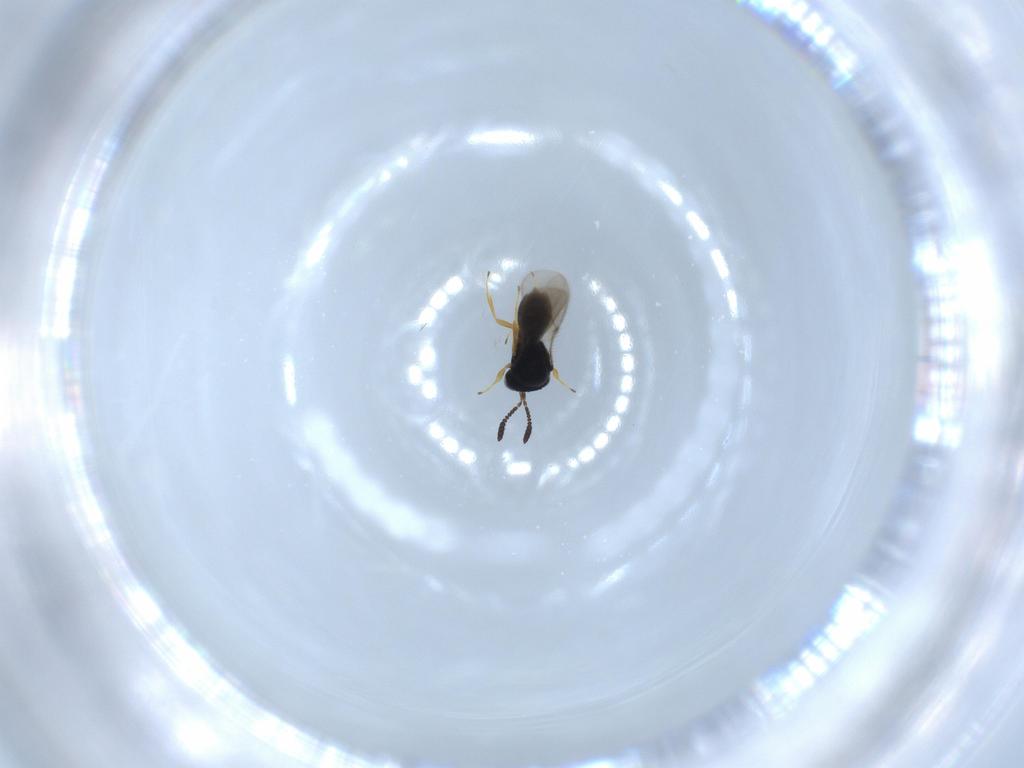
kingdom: Animalia
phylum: Arthropoda
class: Insecta
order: Hymenoptera
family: Scelionidae
